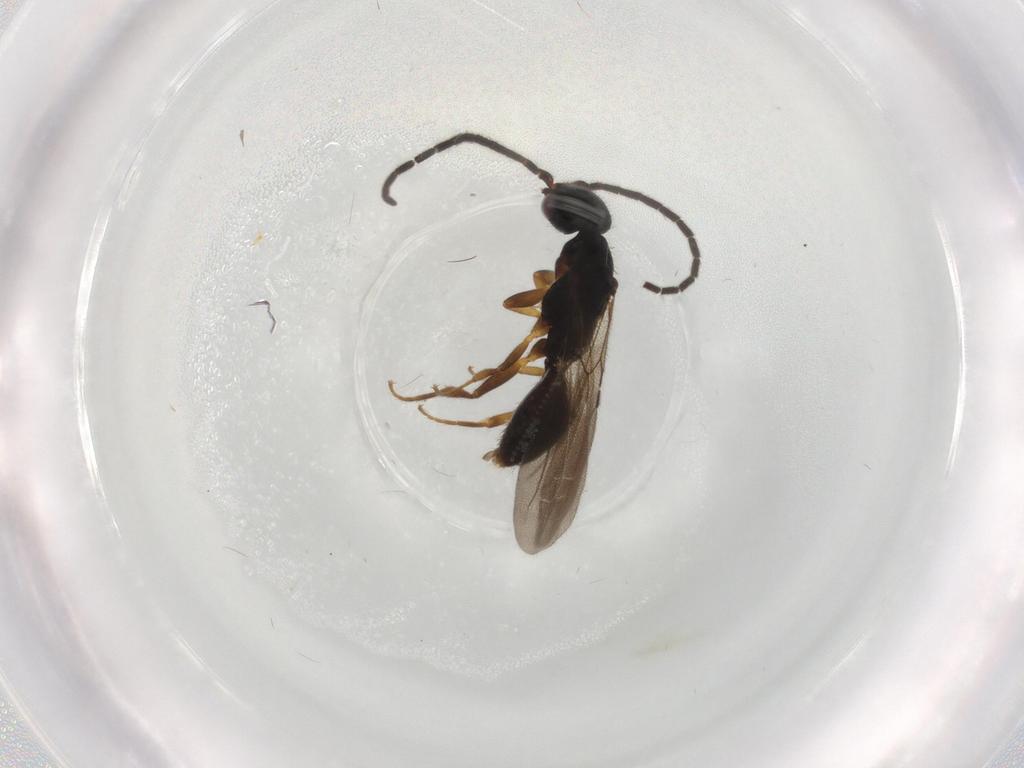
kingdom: Animalia
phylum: Arthropoda
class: Insecta
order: Hymenoptera
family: Bethylidae
